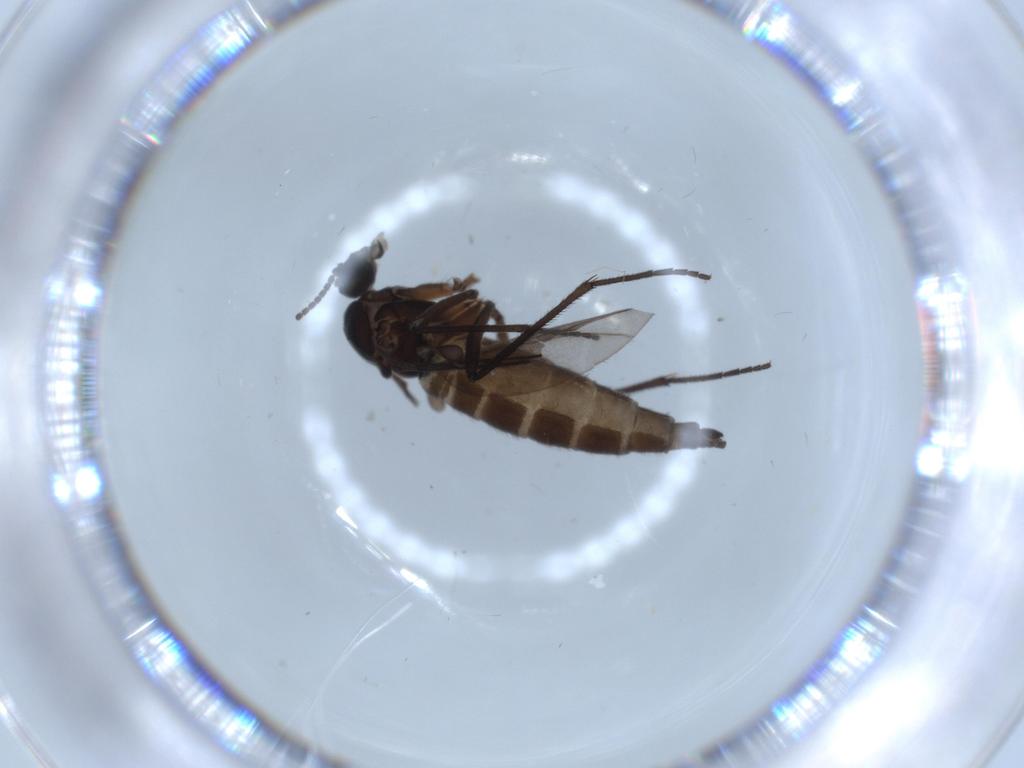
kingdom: Animalia
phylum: Arthropoda
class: Insecta
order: Diptera
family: Sciaridae
